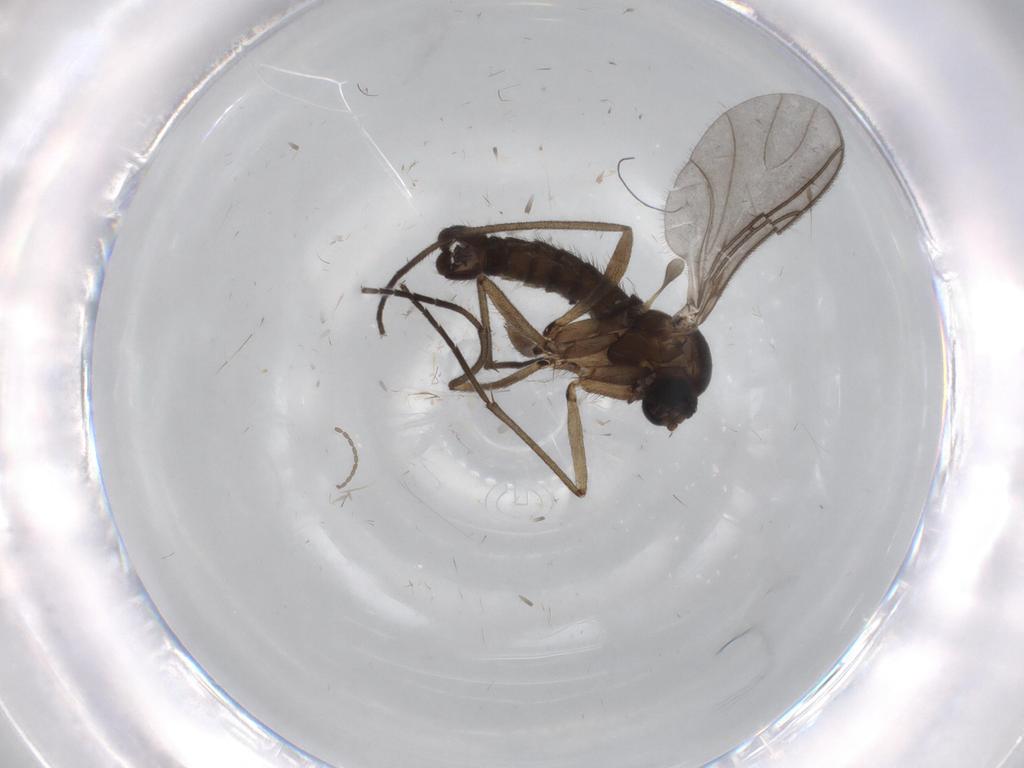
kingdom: Animalia
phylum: Arthropoda
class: Insecta
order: Diptera
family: Sciaridae
